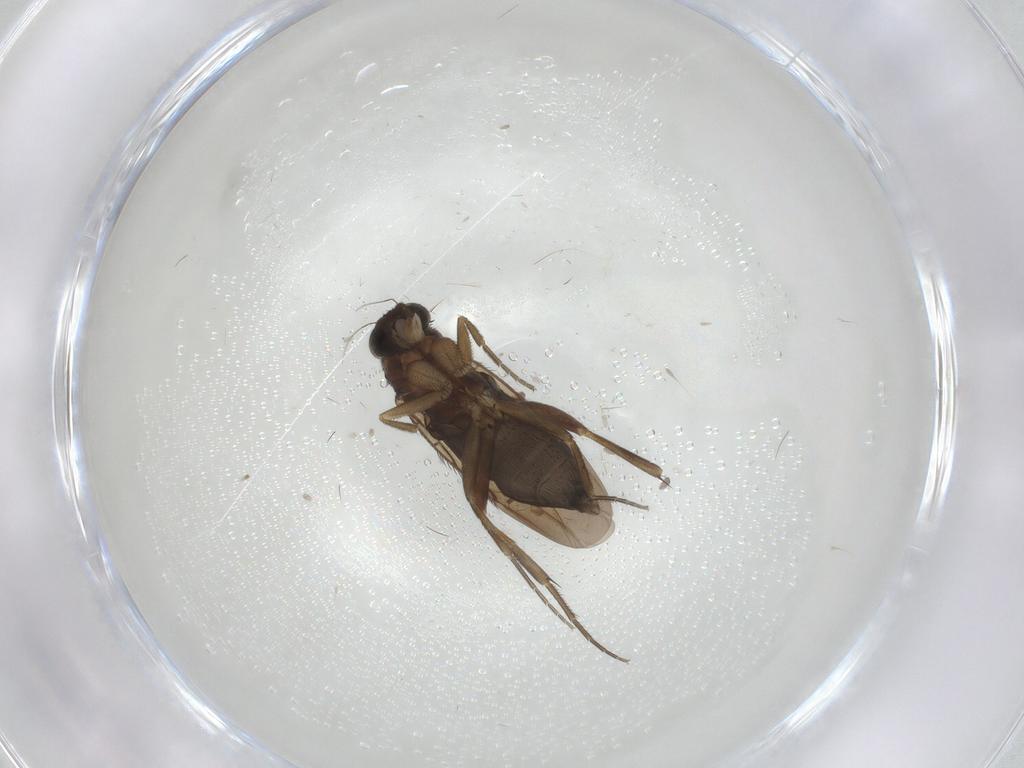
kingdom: Animalia
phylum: Arthropoda
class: Insecta
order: Diptera
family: Phoridae
